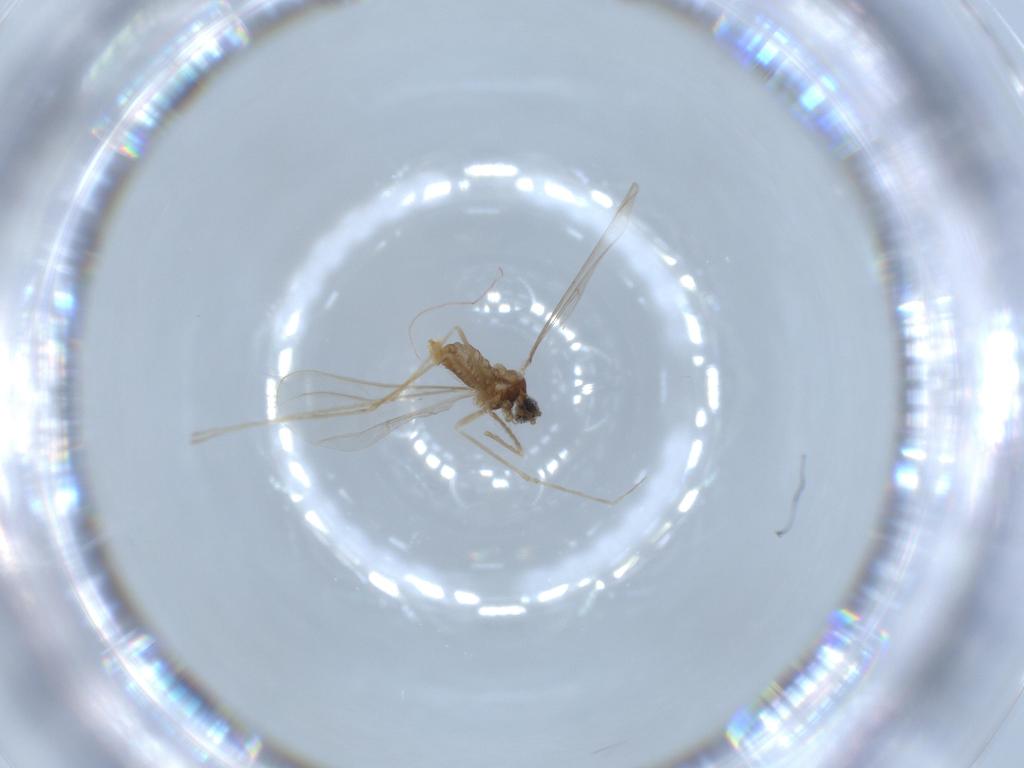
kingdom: Animalia
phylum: Arthropoda
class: Insecta
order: Diptera
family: Cecidomyiidae
